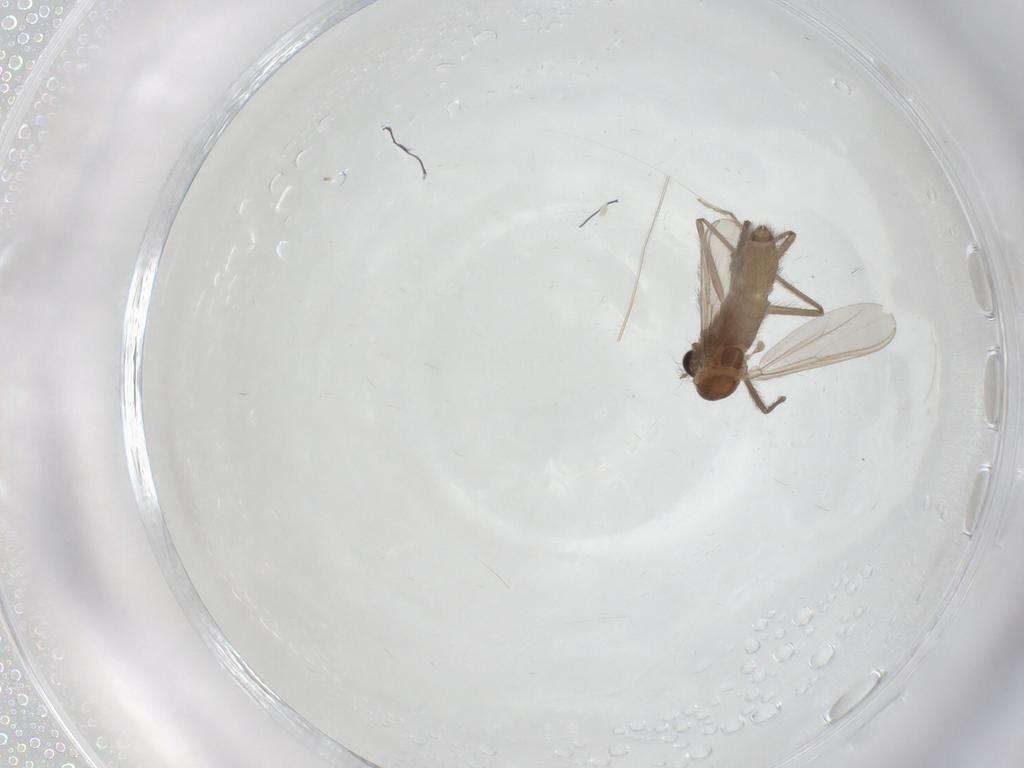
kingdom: Animalia
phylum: Arthropoda
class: Insecta
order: Diptera
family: Chironomidae
